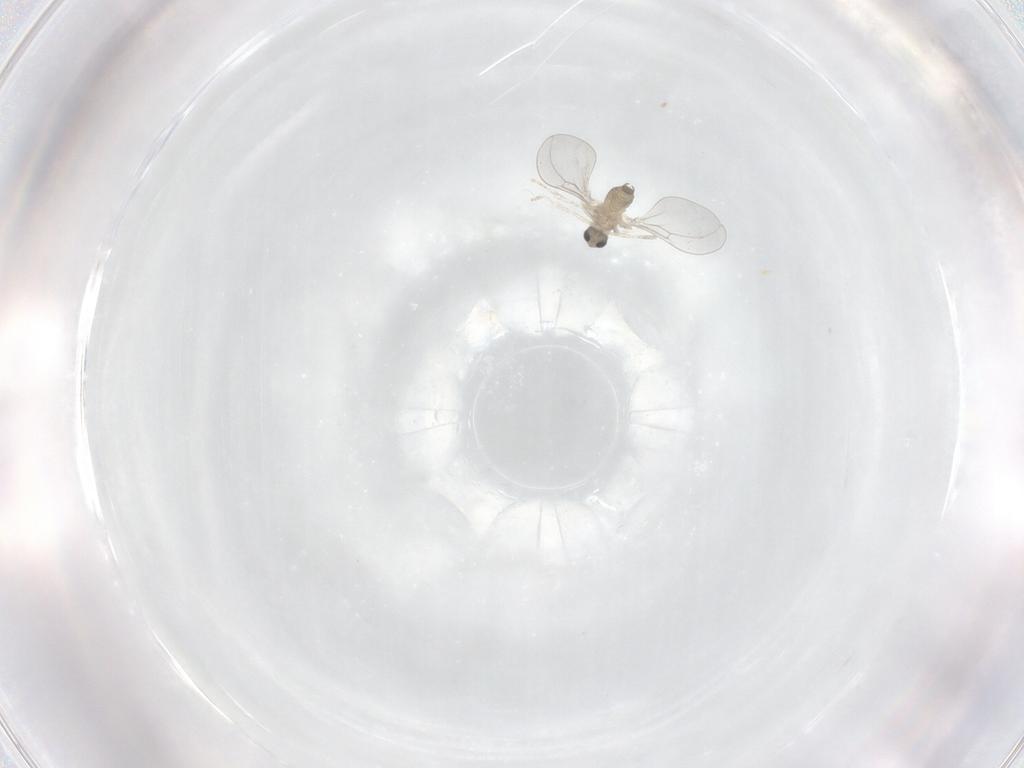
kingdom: Animalia
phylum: Arthropoda
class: Insecta
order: Diptera
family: Cecidomyiidae
